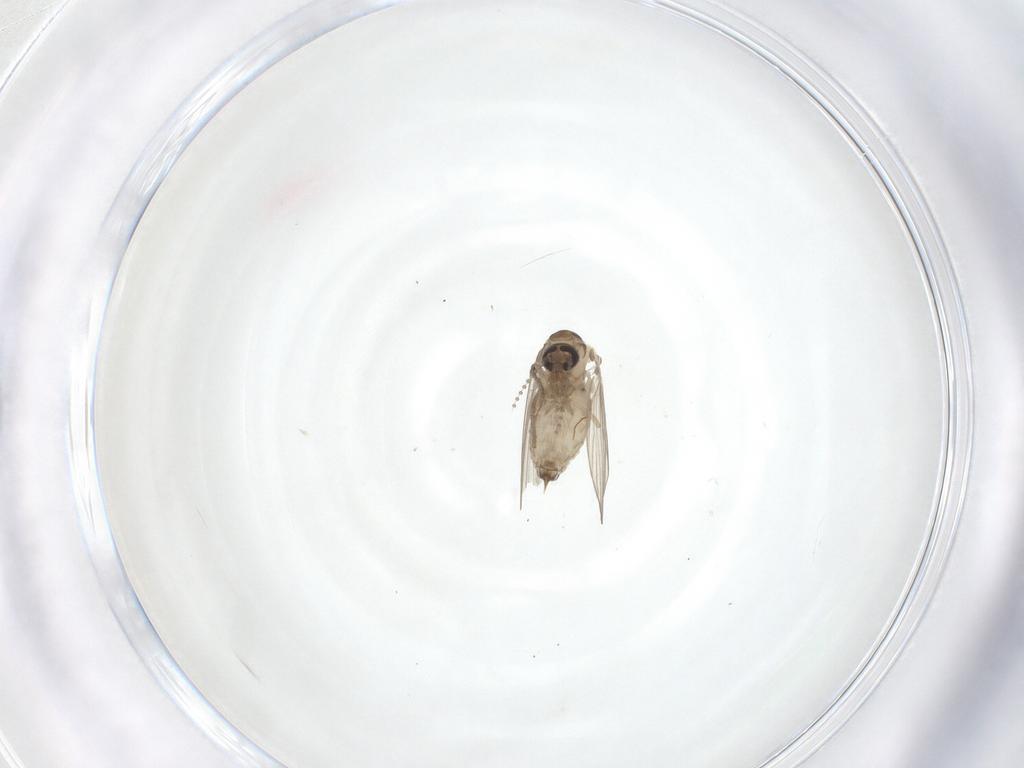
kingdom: Animalia
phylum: Arthropoda
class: Insecta
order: Diptera
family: Psychodidae
